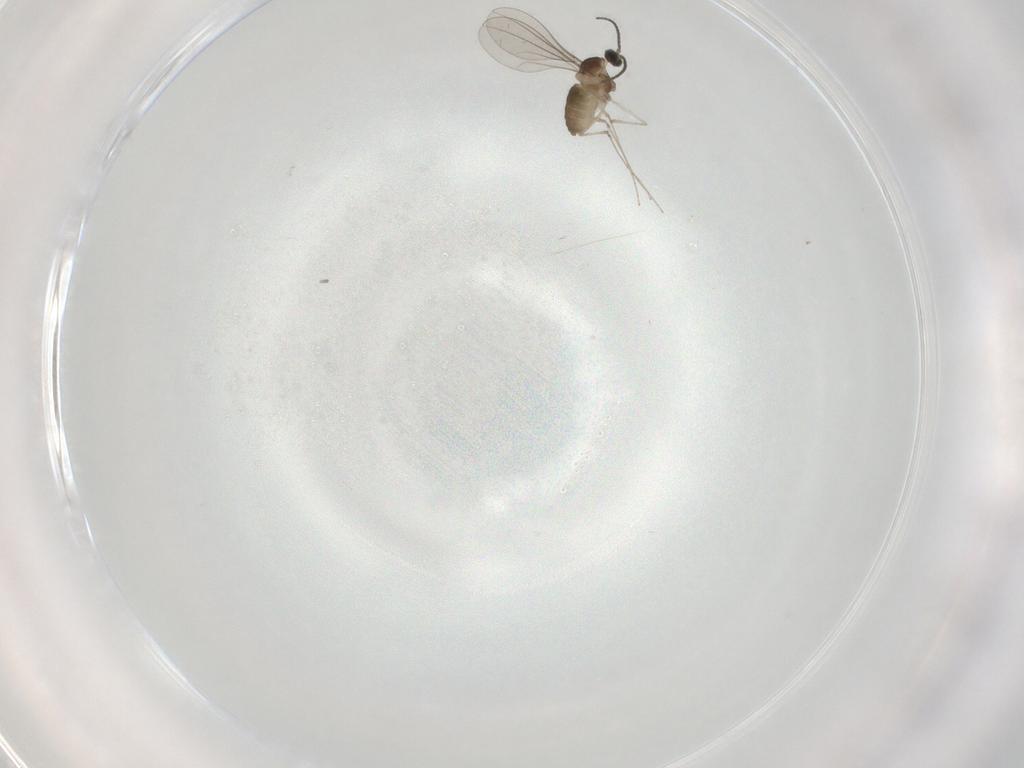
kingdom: Animalia
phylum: Arthropoda
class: Insecta
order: Diptera
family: Cecidomyiidae
